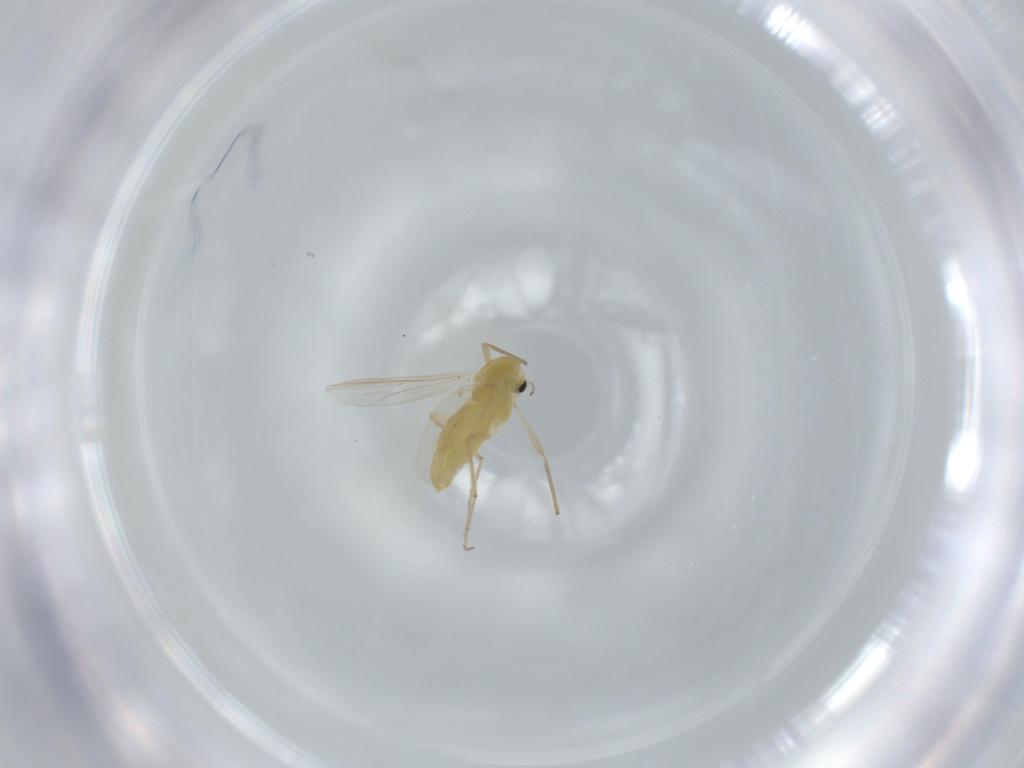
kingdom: Animalia
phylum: Arthropoda
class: Insecta
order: Diptera
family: Chironomidae
